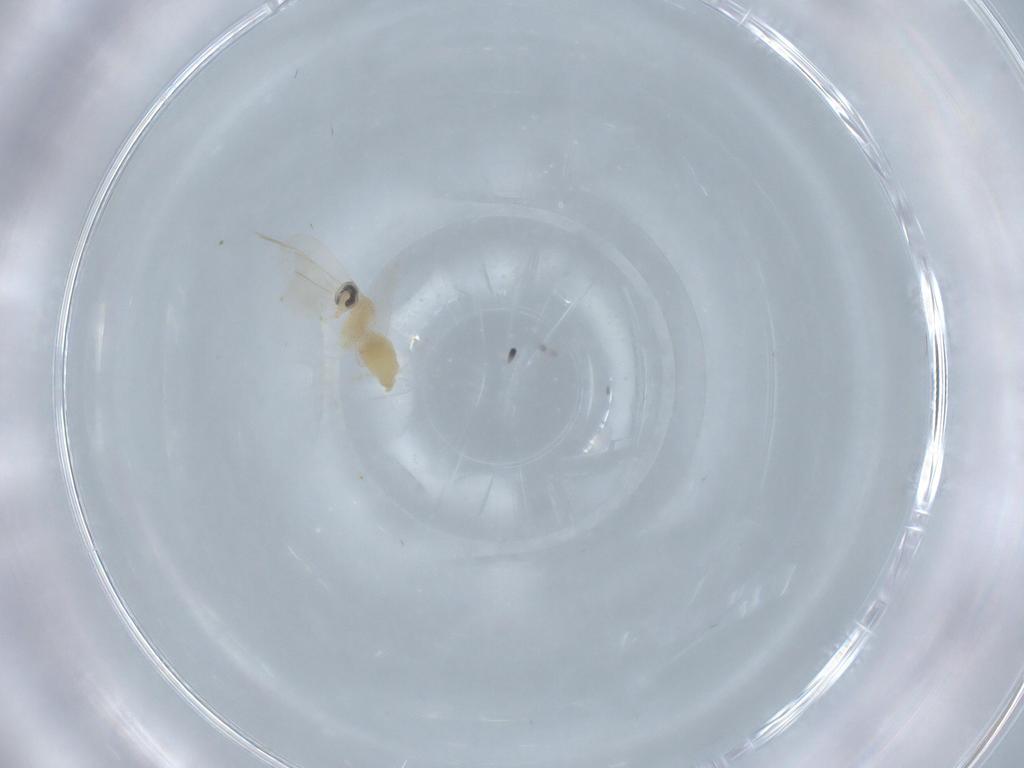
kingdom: Animalia
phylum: Arthropoda
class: Insecta
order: Diptera
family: Cecidomyiidae
